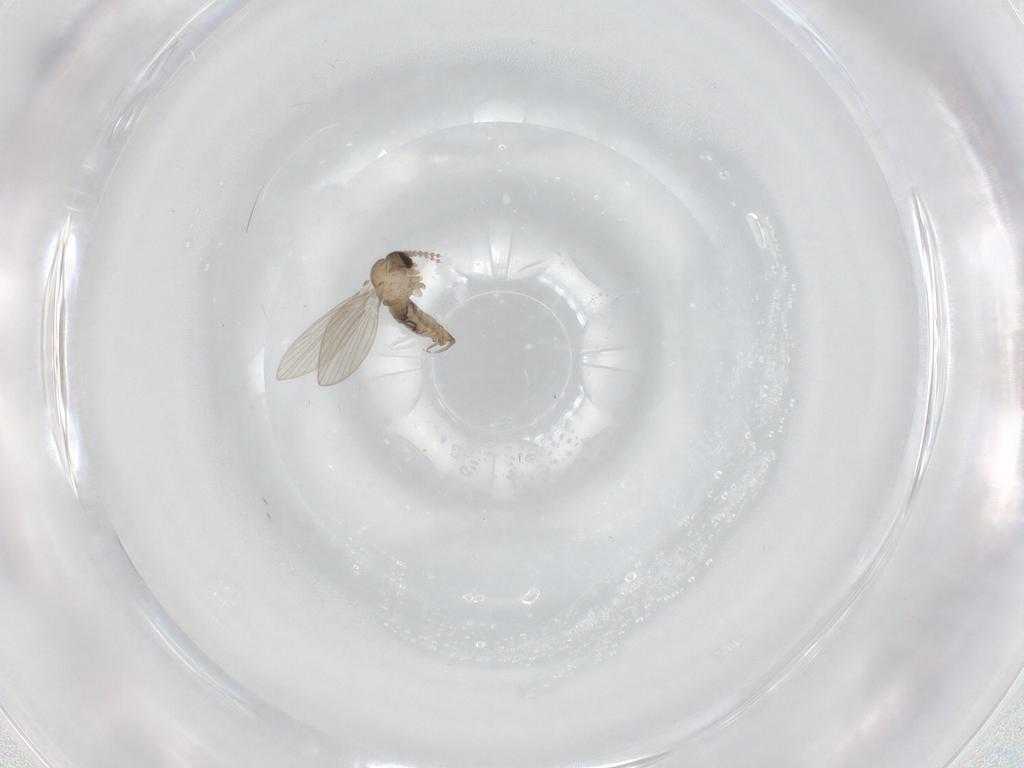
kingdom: Animalia
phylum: Arthropoda
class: Insecta
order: Diptera
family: Psychodidae
